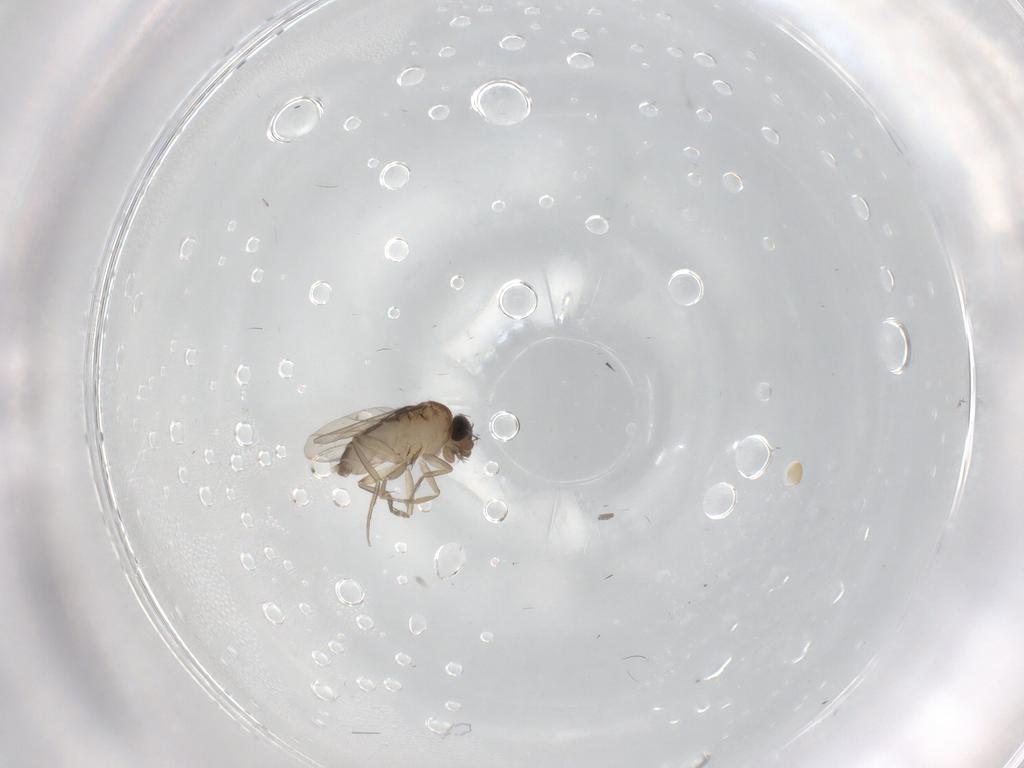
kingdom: Animalia
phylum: Arthropoda
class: Insecta
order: Diptera
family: Phoridae
